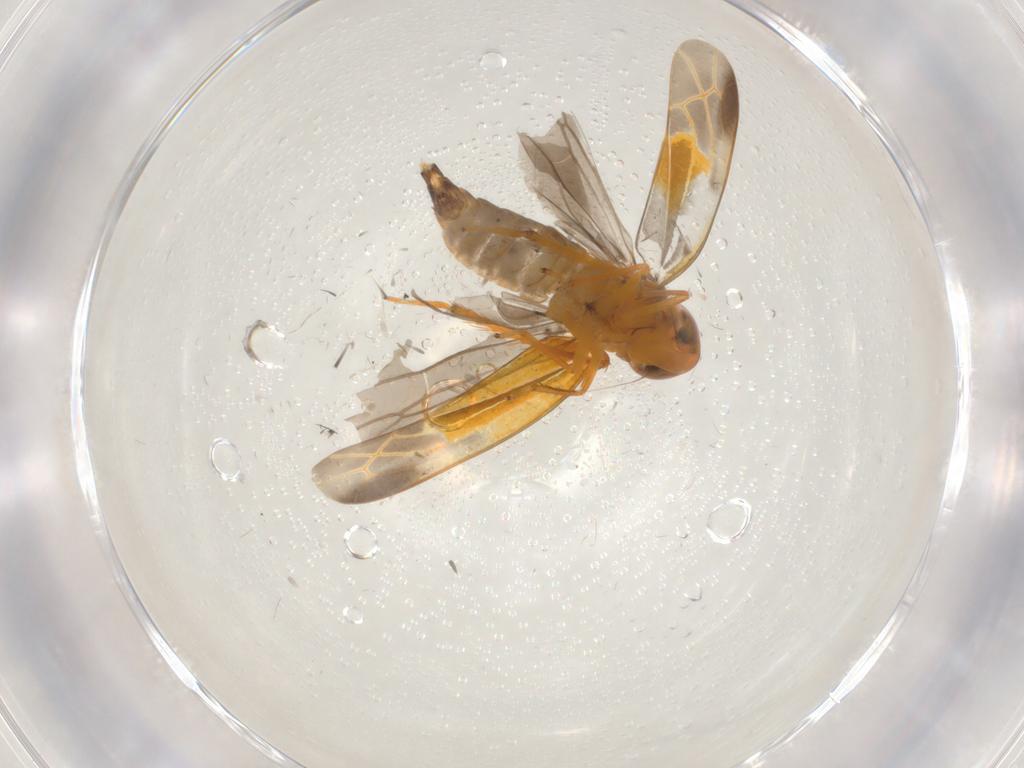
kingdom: Animalia
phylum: Arthropoda
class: Insecta
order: Hemiptera
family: Cicadellidae
